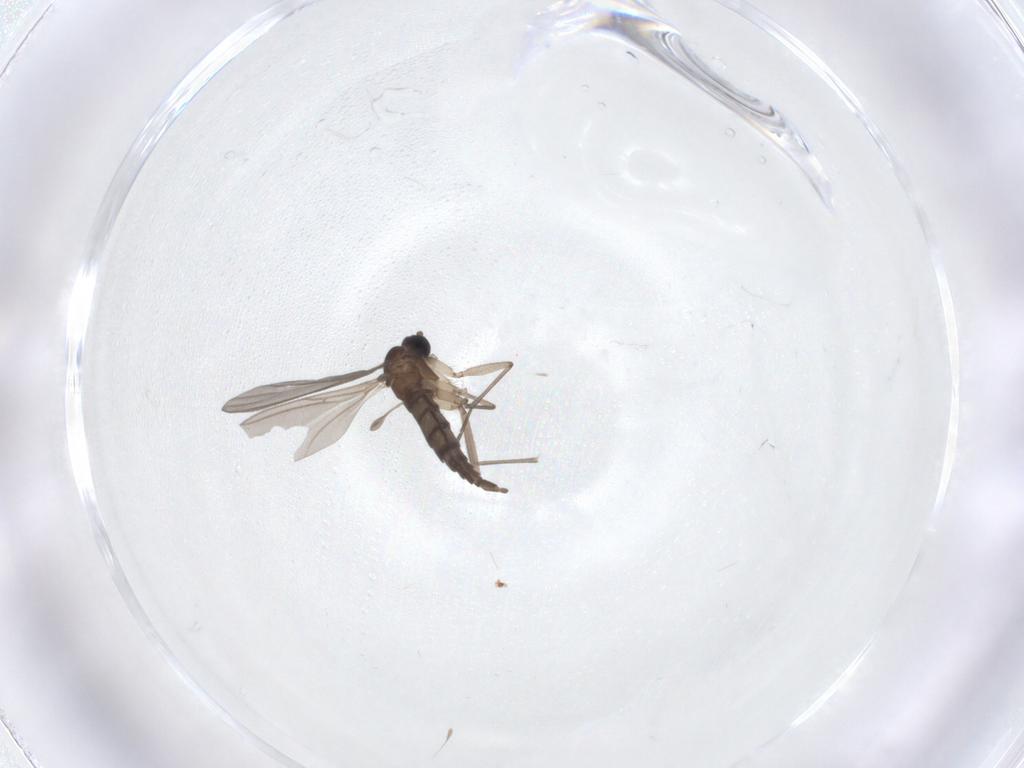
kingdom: Animalia
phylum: Arthropoda
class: Insecta
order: Diptera
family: Sciaridae
